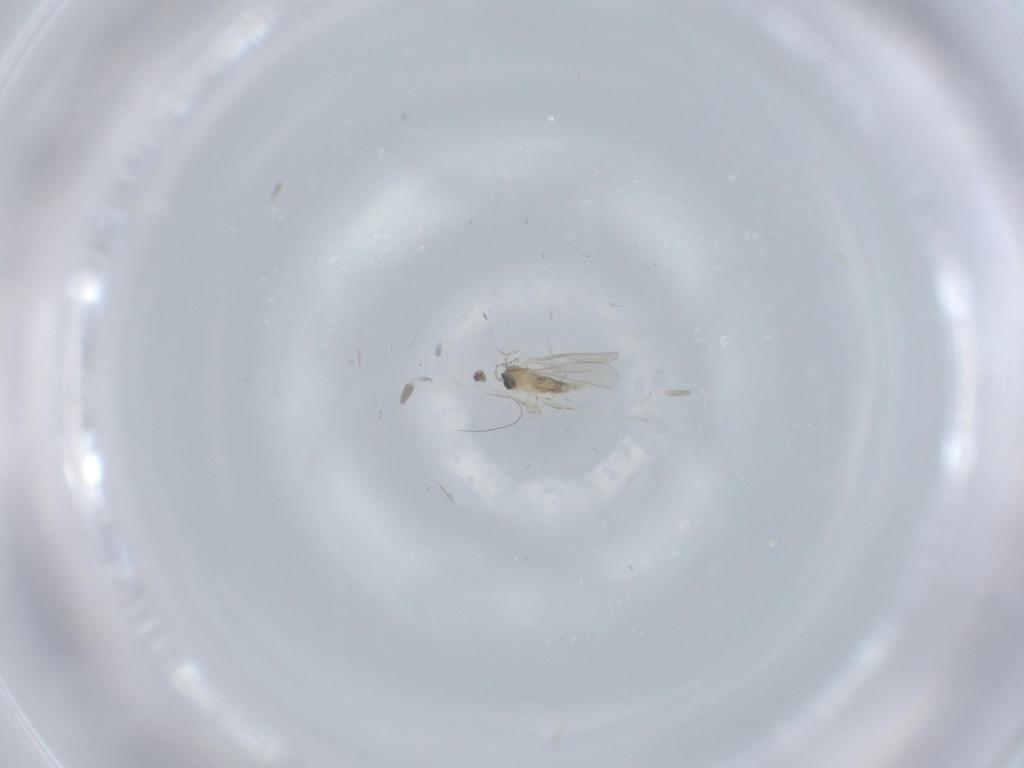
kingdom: Animalia
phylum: Arthropoda
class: Insecta
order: Diptera
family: Cecidomyiidae
